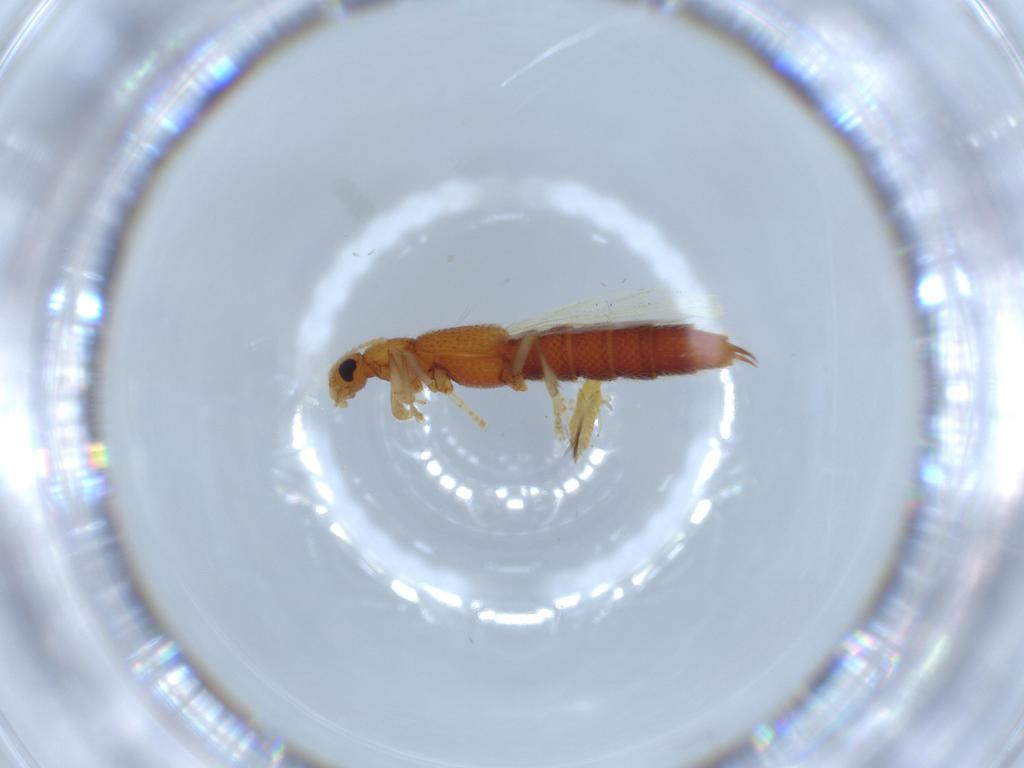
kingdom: Animalia
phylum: Arthropoda
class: Insecta
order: Coleoptera
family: Staphylinidae
